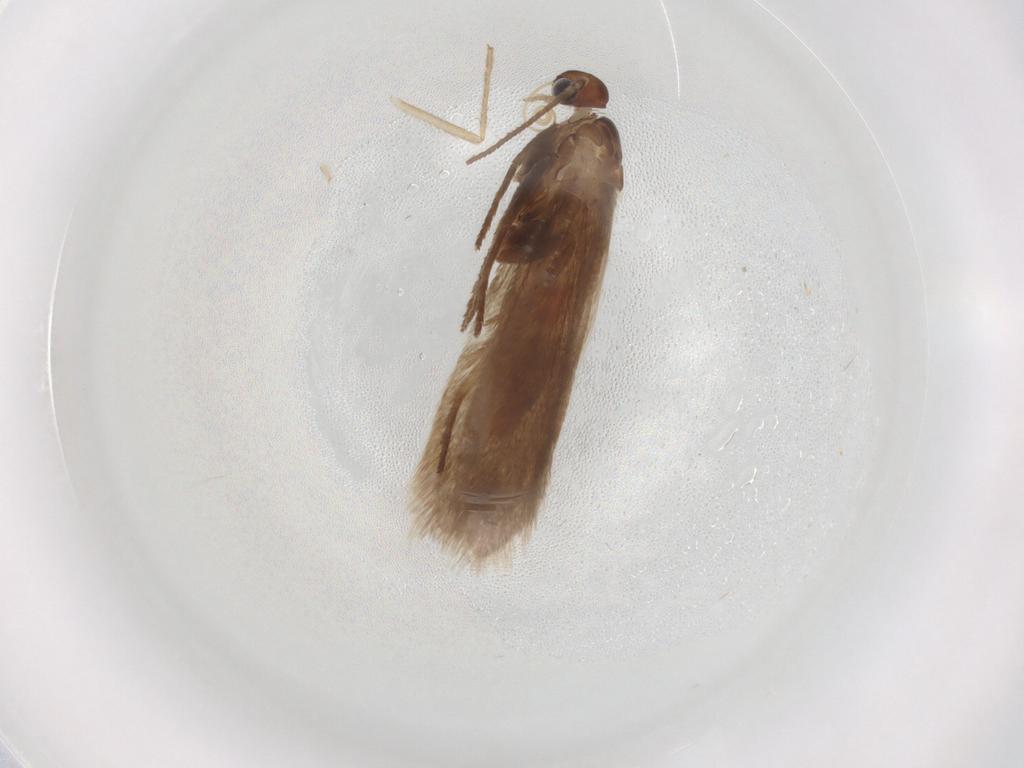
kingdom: Animalia
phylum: Arthropoda
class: Insecta
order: Lepidoptera
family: Limacodidae
